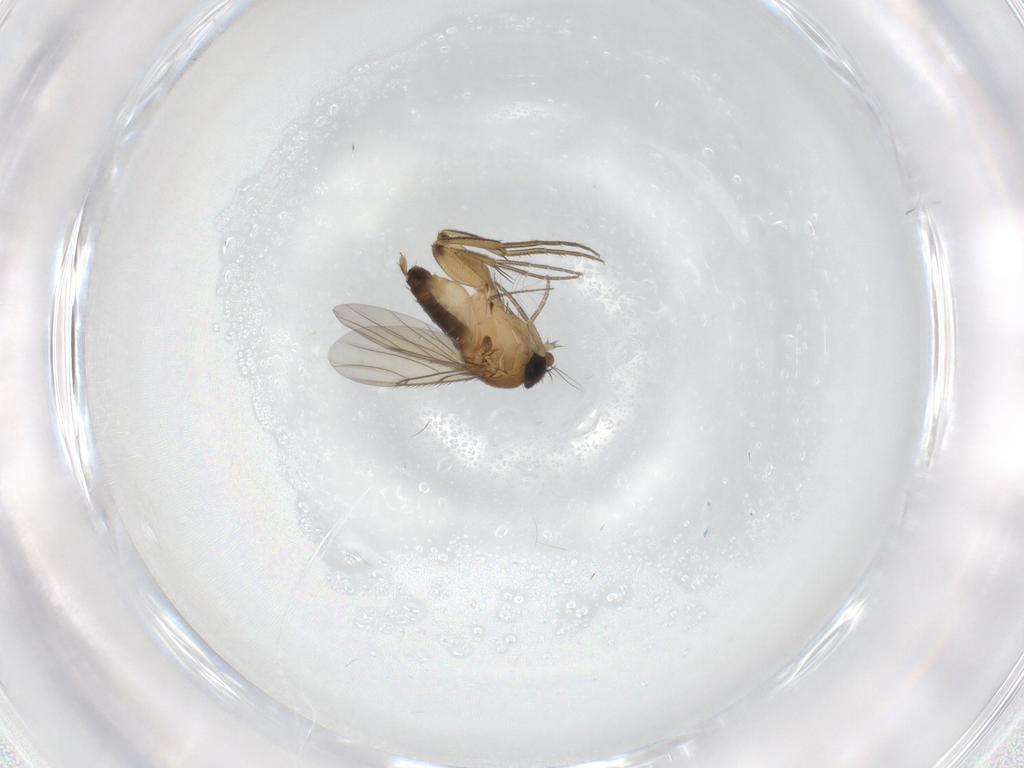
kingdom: Animalia
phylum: Arthropoda
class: Insecta
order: Diptera
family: Phoridae
